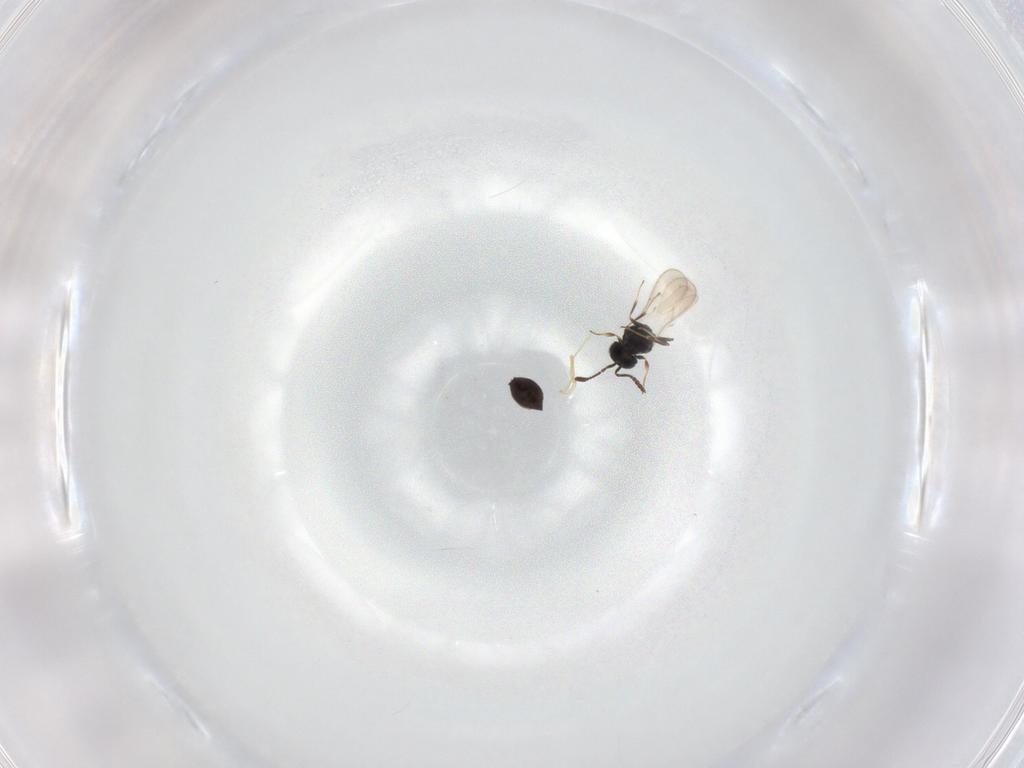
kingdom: Animalia
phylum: Arthropoda
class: Insecta
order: Hymenoptera
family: Scelionidae
